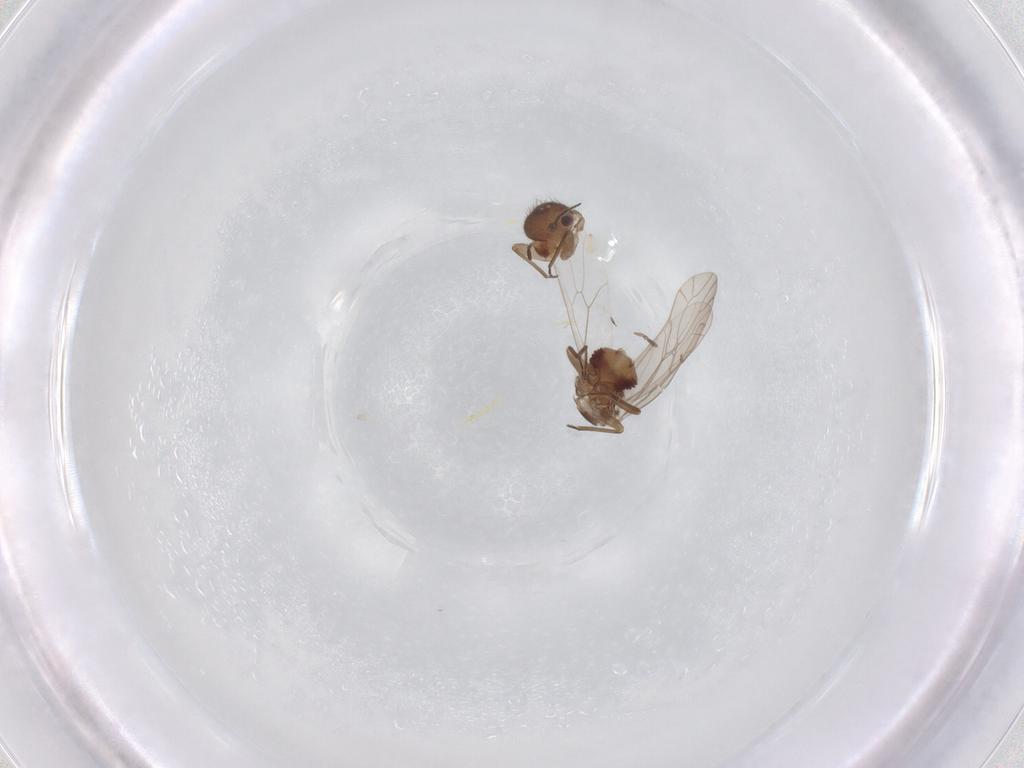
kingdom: Animalia
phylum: Arthropoda
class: Insecta
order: Psocodea
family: Ectopsocidae
